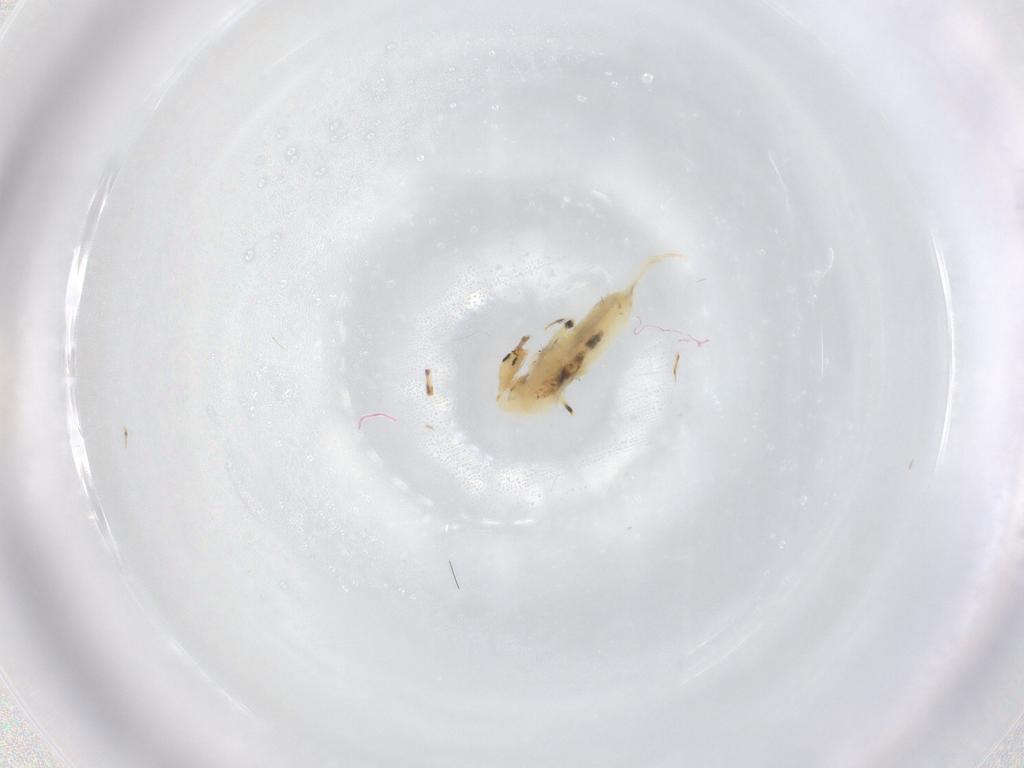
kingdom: Animalia
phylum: Arthropoda
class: Collembola
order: Entomobryomorpha
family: Entomobryidae
